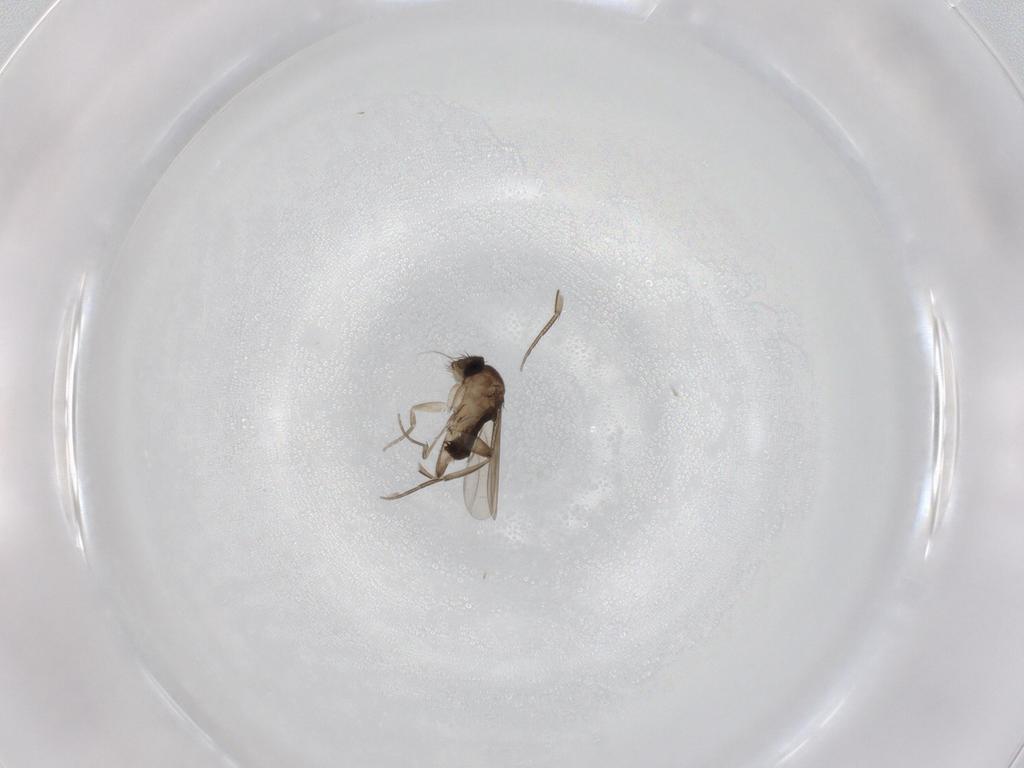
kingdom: Animalia
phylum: Arthropoda
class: Insecta
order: Diptera
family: Phoridae
